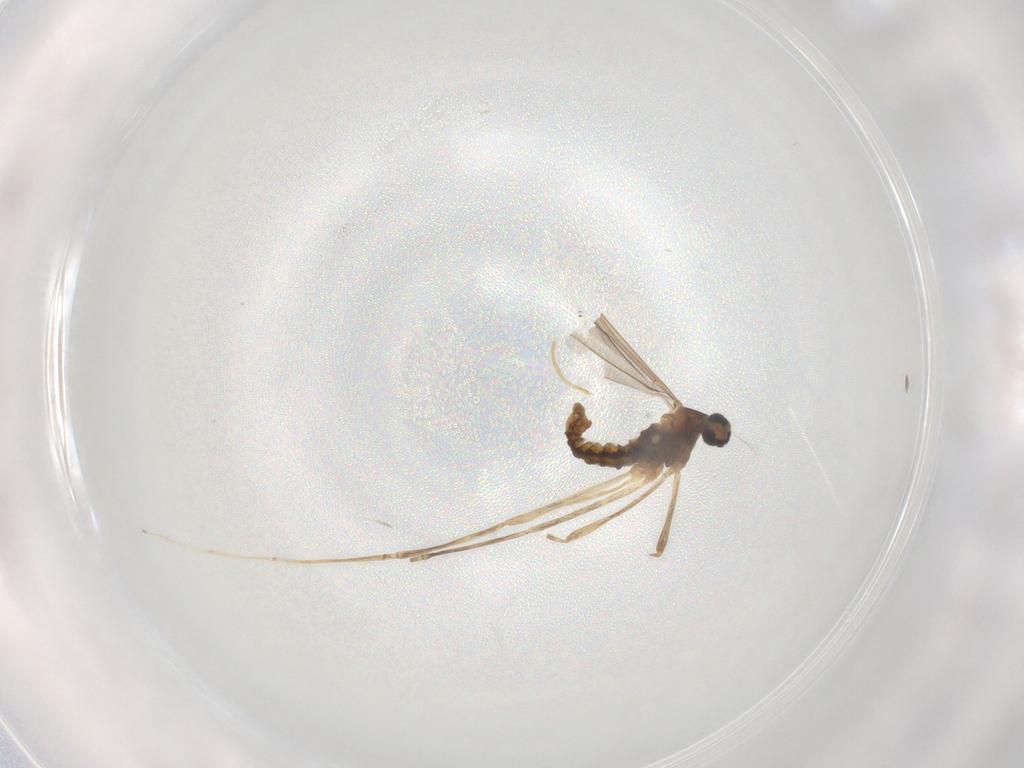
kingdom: Animalia
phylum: Arthropoda
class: Insecta
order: Diptera
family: Cecidomyiidae
